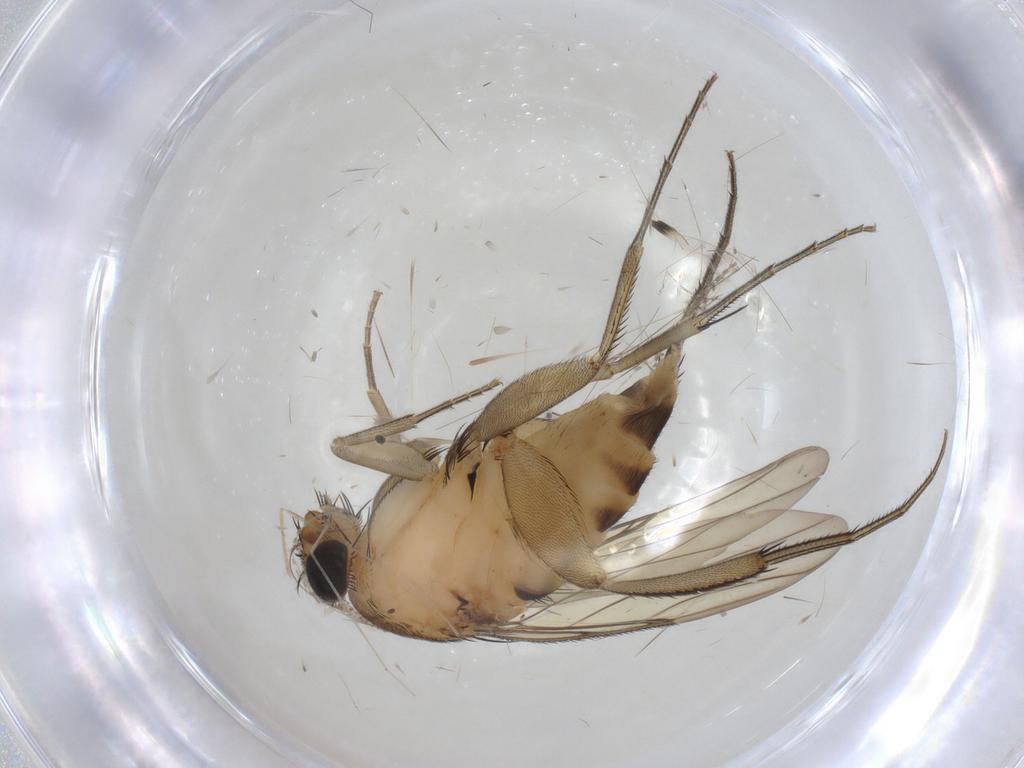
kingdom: Animalia
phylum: Arthropoda
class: Insecta
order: Diptera
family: Phoridae
